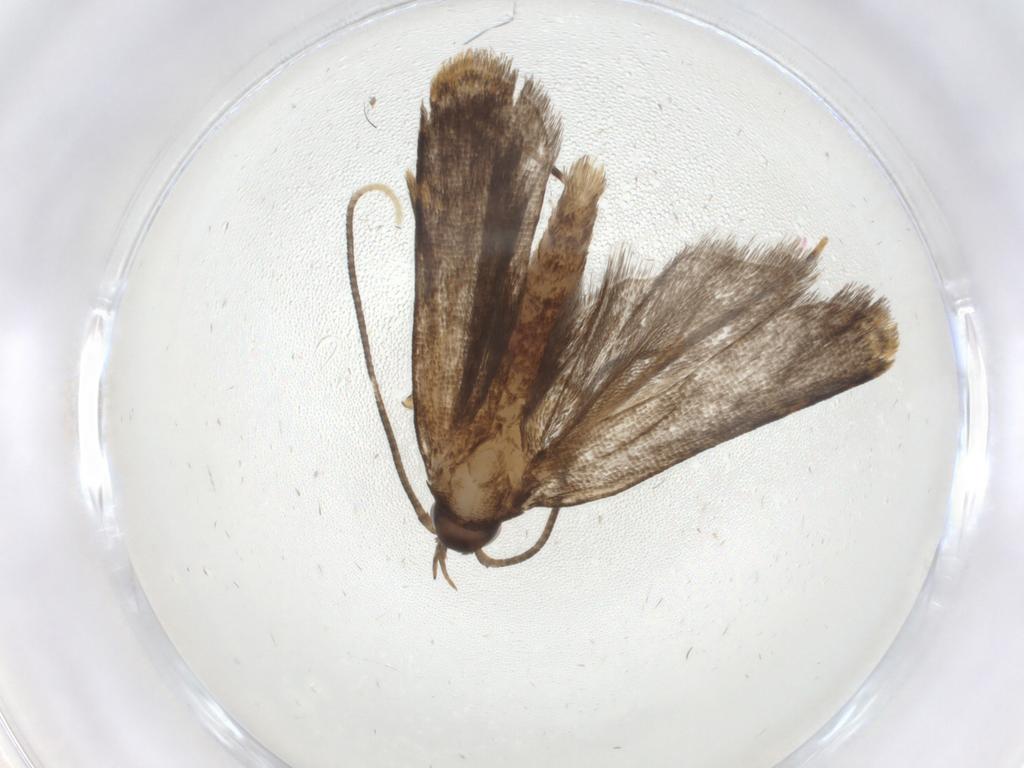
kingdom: Animalia
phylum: Arthropoda
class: Insecta
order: Lepidoptera
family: Cosmopterigidae
